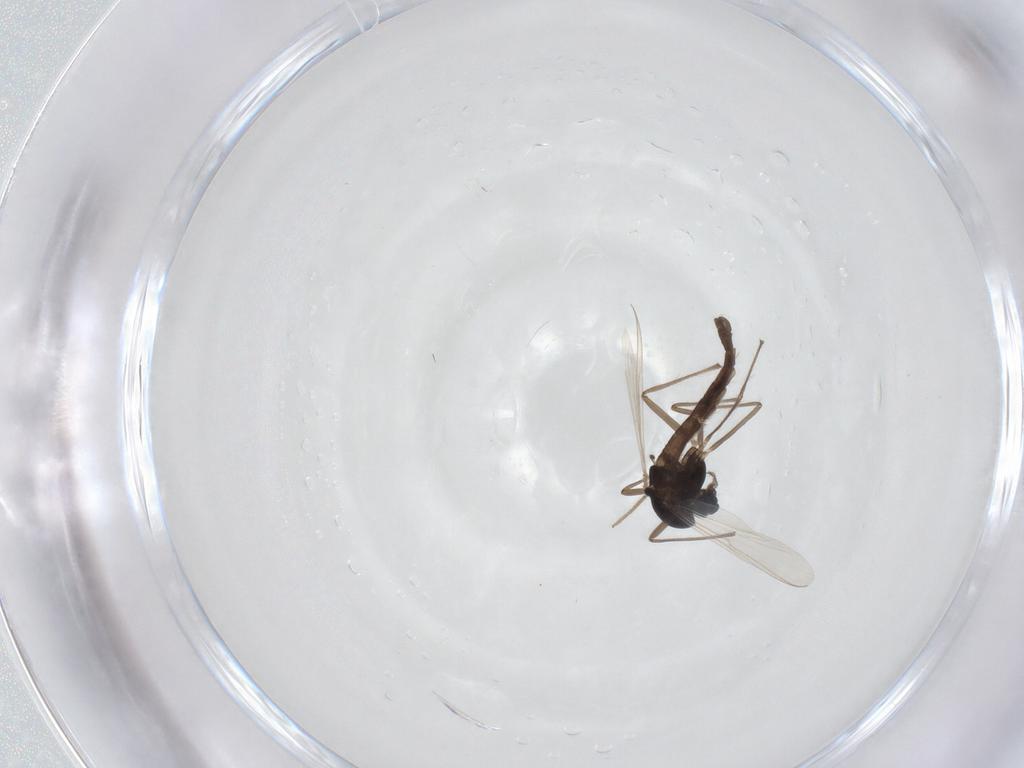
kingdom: Animalia
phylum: Arthropoda
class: Insecta
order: Diptera
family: Chironomidae
